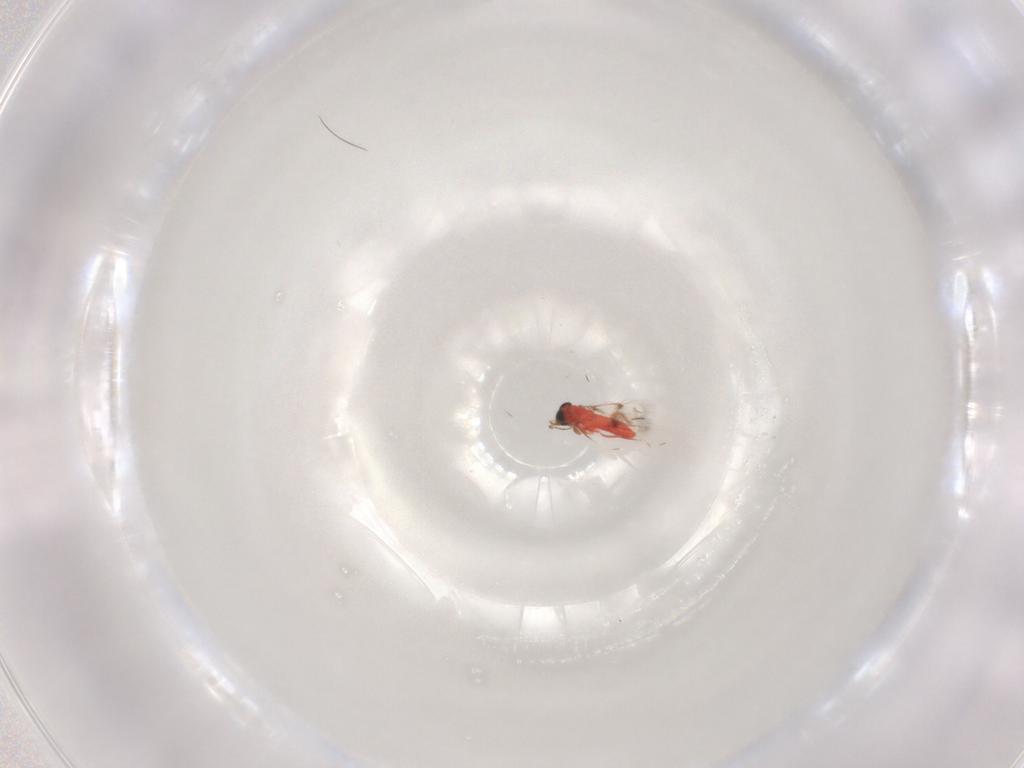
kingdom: Animalia
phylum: Arthropoda
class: Insecta
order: Hymenoptera
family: Trichogrammatidae
